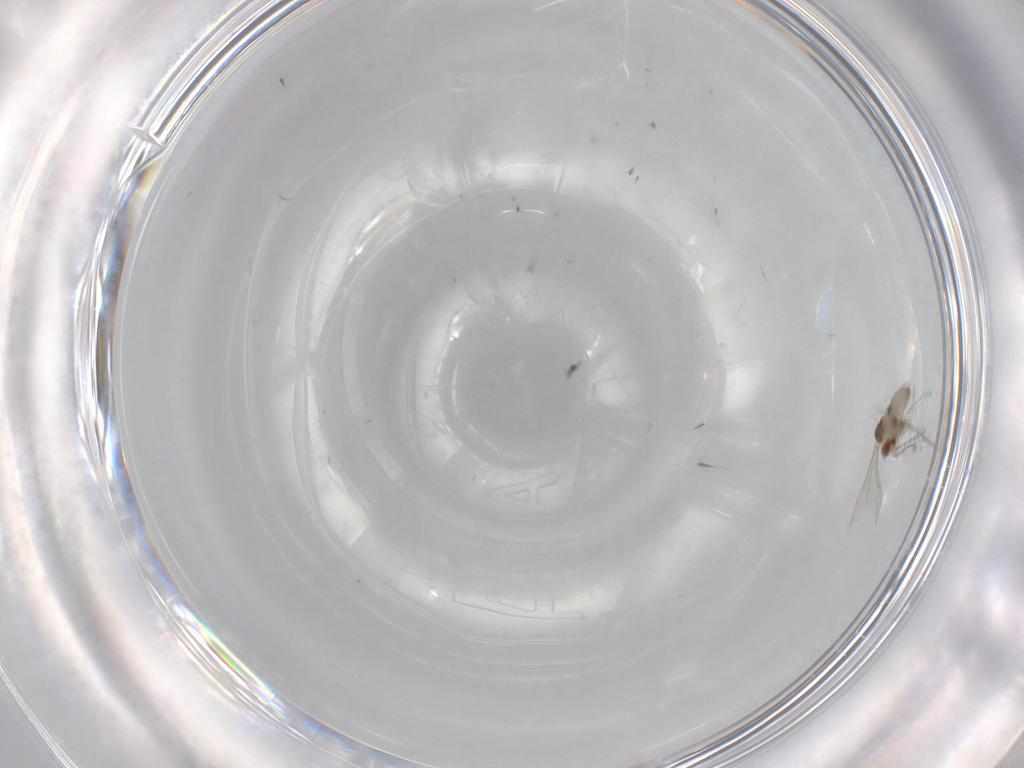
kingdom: Animalia
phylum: Arthropoda
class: Insecta
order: Diptera
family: Cecidomyiidae
